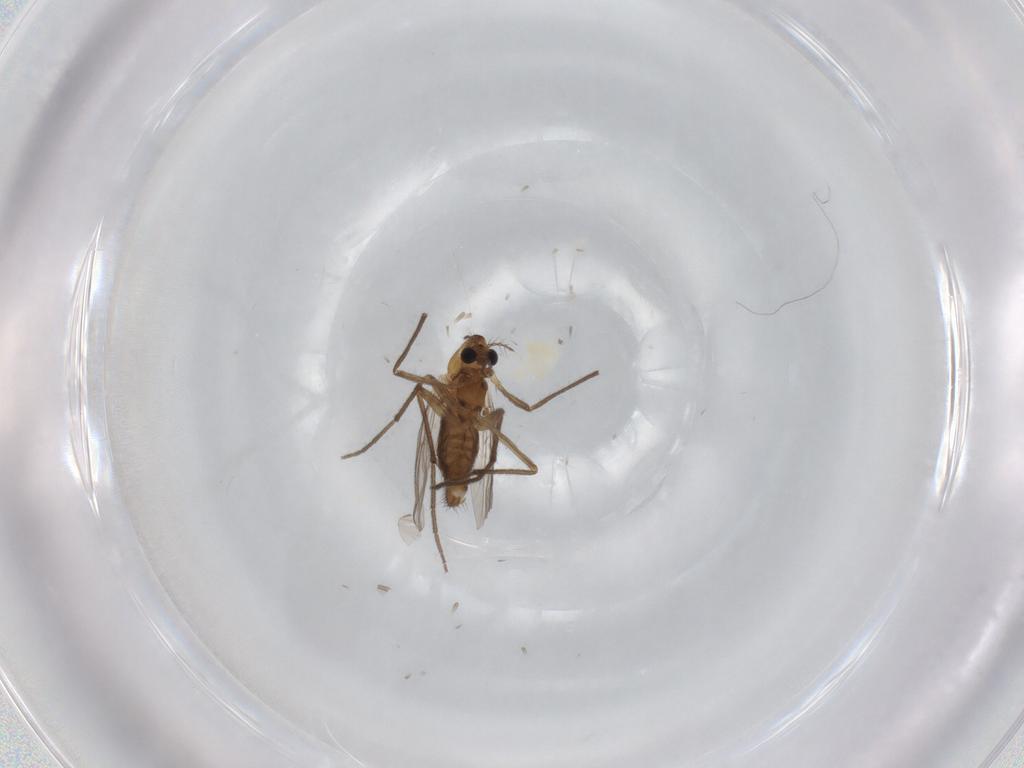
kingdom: Animalia
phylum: Arthropoda
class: Insecta
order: Diptera
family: Chironomidae
